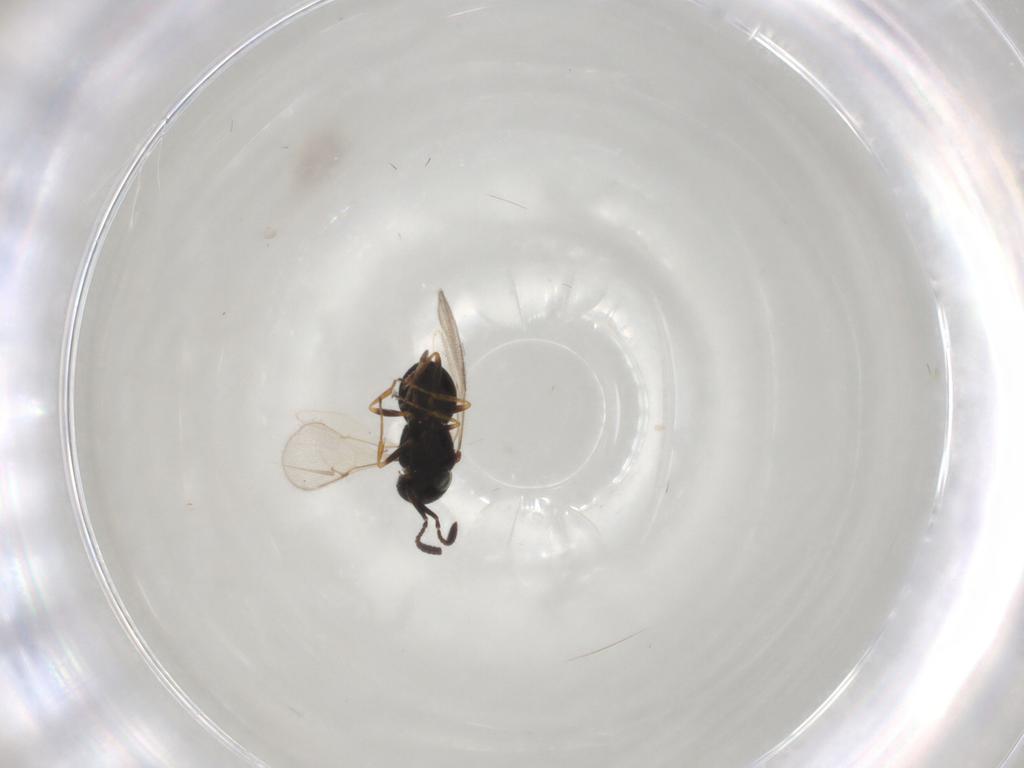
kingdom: Animalia
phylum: Arthropoda
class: Insecta
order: Hymenoptera
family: Scelionidae
